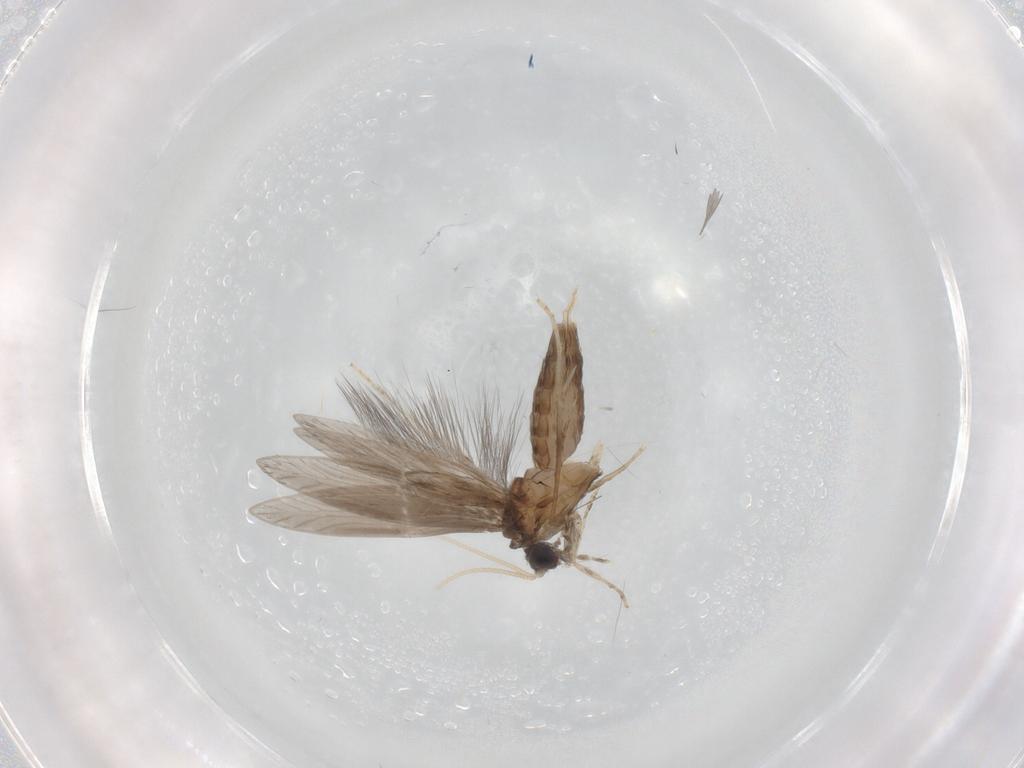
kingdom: Animalia
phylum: Arthropoda
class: Insecta
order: Trichoptera
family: Hydroptilidae
